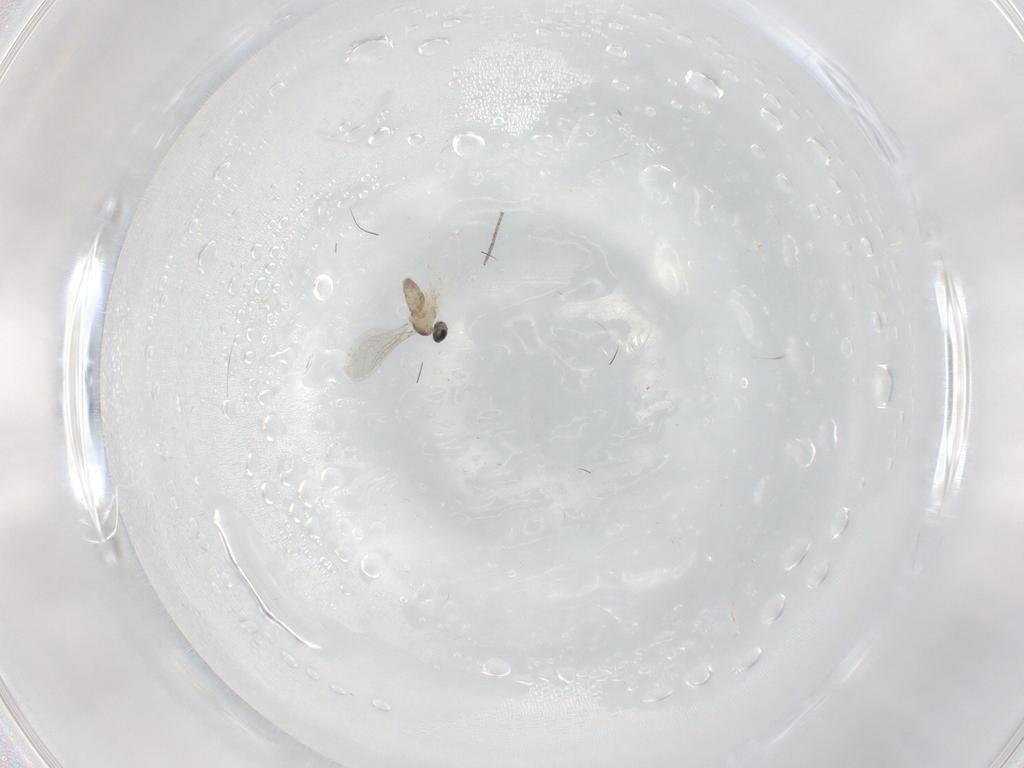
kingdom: Animalia
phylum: Arthropoda
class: Insecta
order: Diptera
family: Cecidomyiidae
